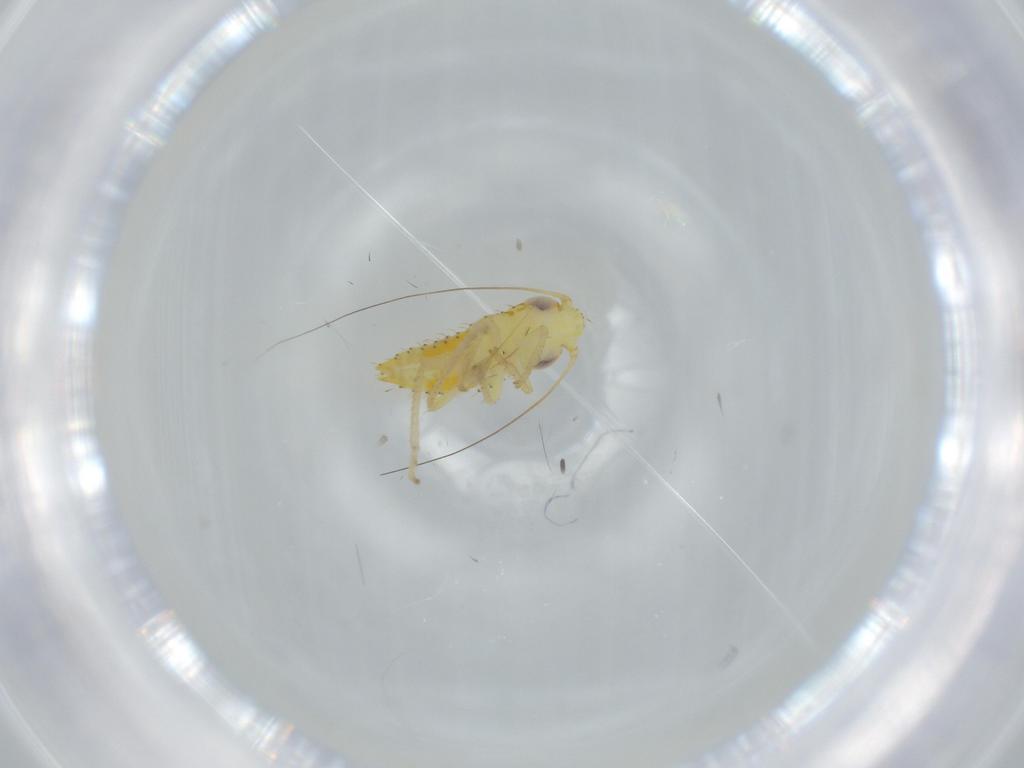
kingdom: Animalia
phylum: Arthropoda
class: Insecta
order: Hemiptera
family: Cicadellidae
